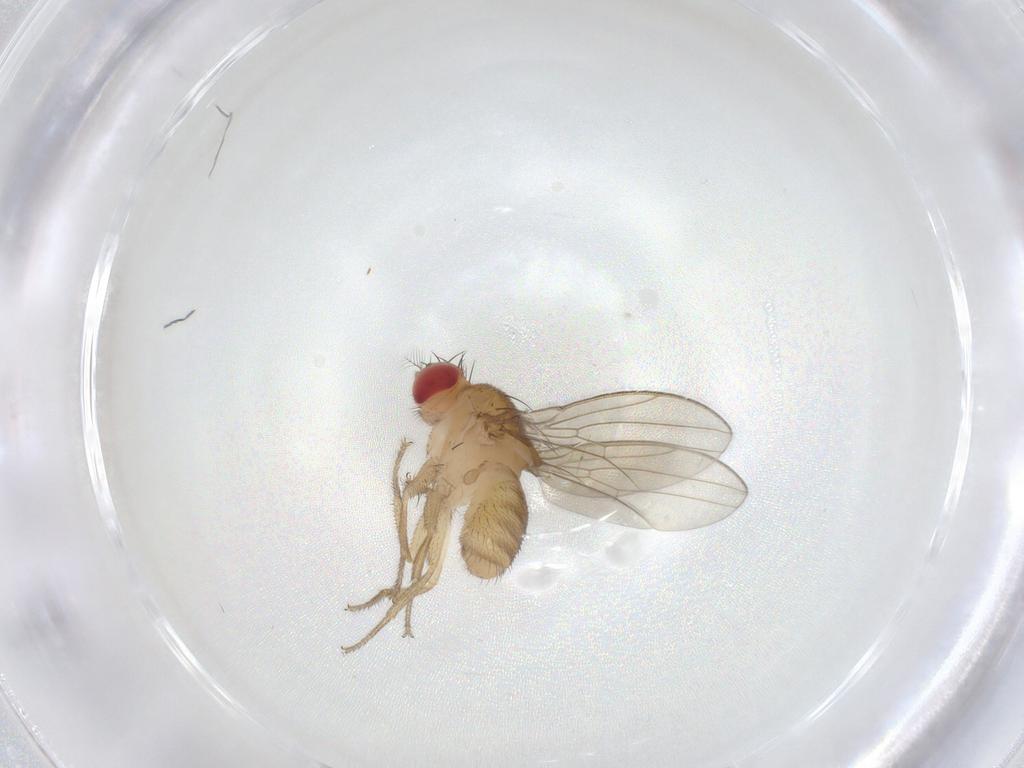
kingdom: Animalia
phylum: Arthropoda
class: Insecta
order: Diptera
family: Drosophilidae
